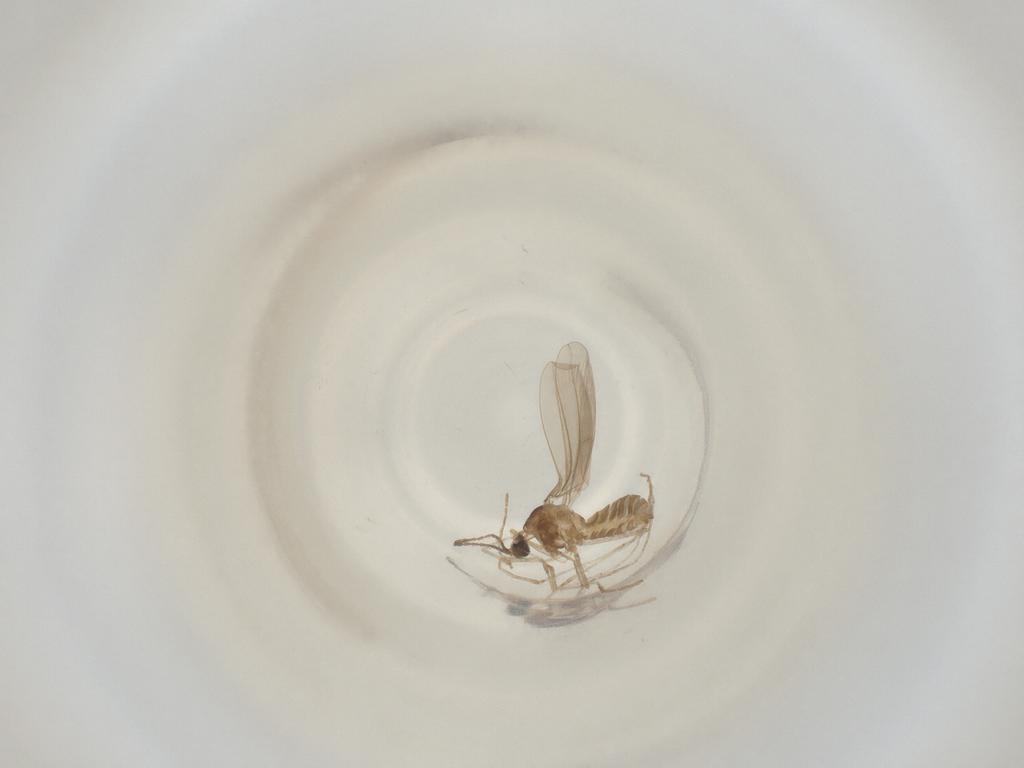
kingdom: Animalia
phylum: Arthropoda
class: Insecta
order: Diptera
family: Cecidomyiidae
